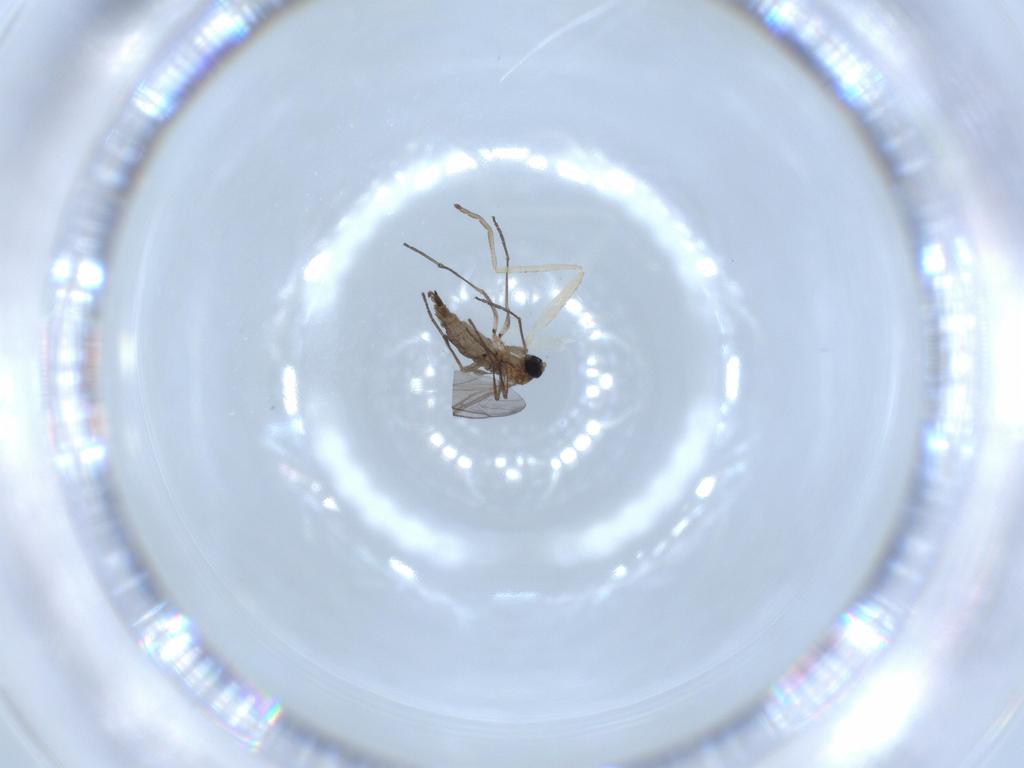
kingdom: Animalia
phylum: Arthropoda
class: Insecta
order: Diptera
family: Sciaridae
